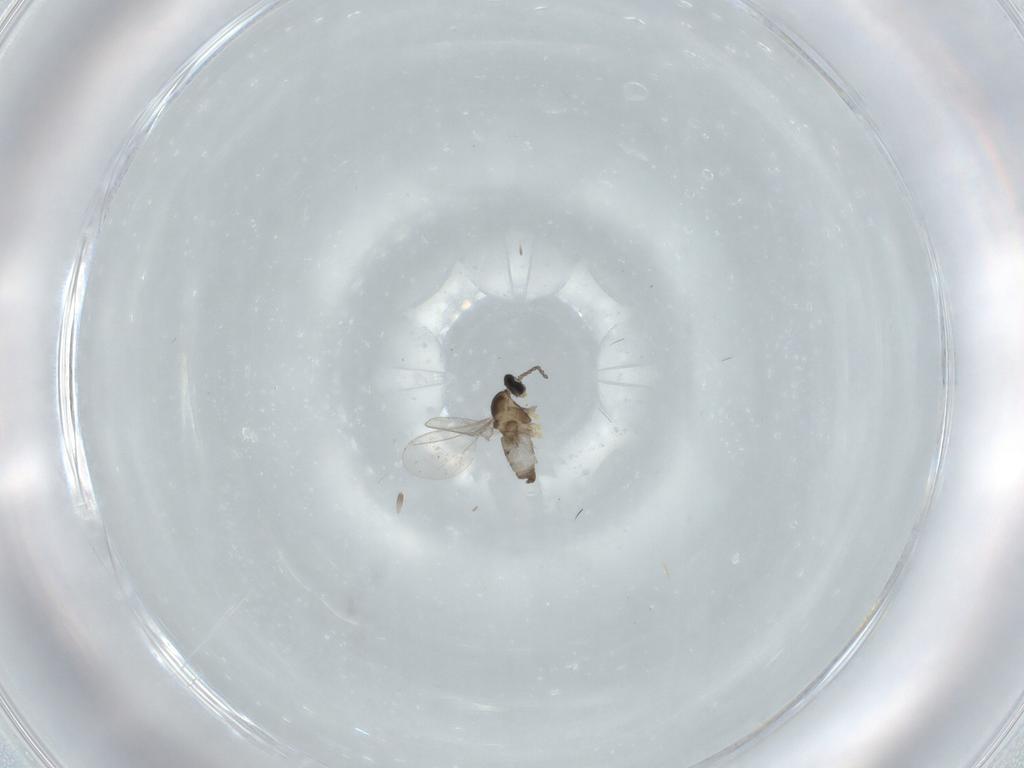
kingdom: Animalia
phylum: Arthropoda
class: Insecta
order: Diptera
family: Cecidomyiidae
